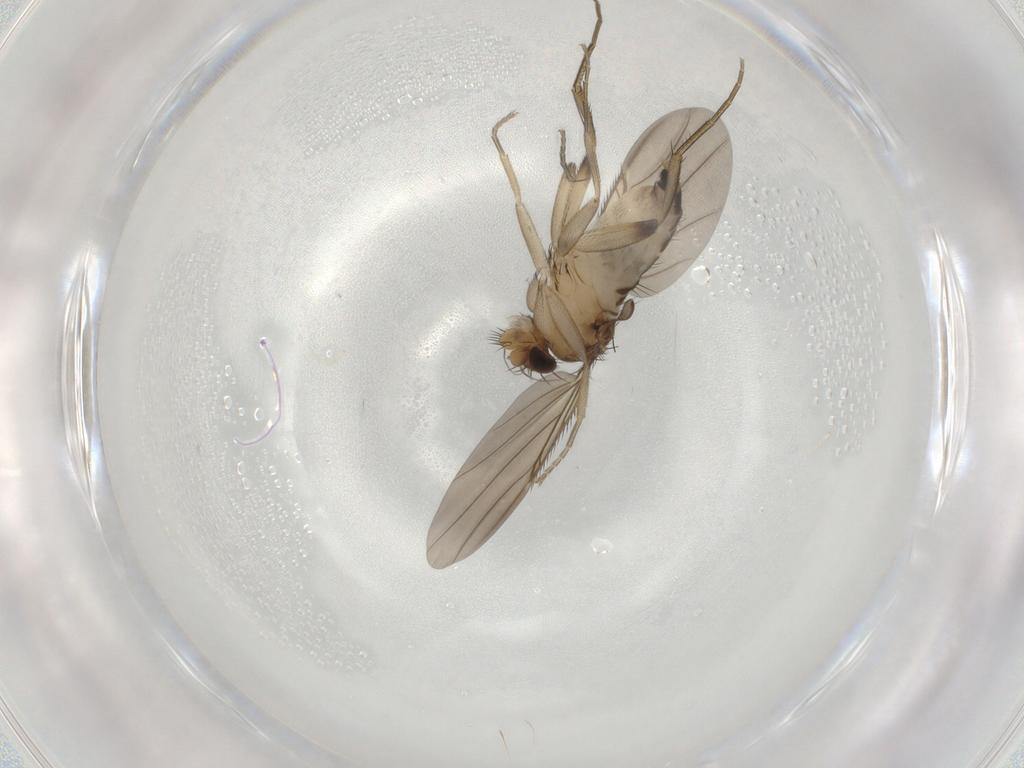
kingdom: Animalia
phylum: Arthropoda
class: Insecta
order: Diptera
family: Phoridae
